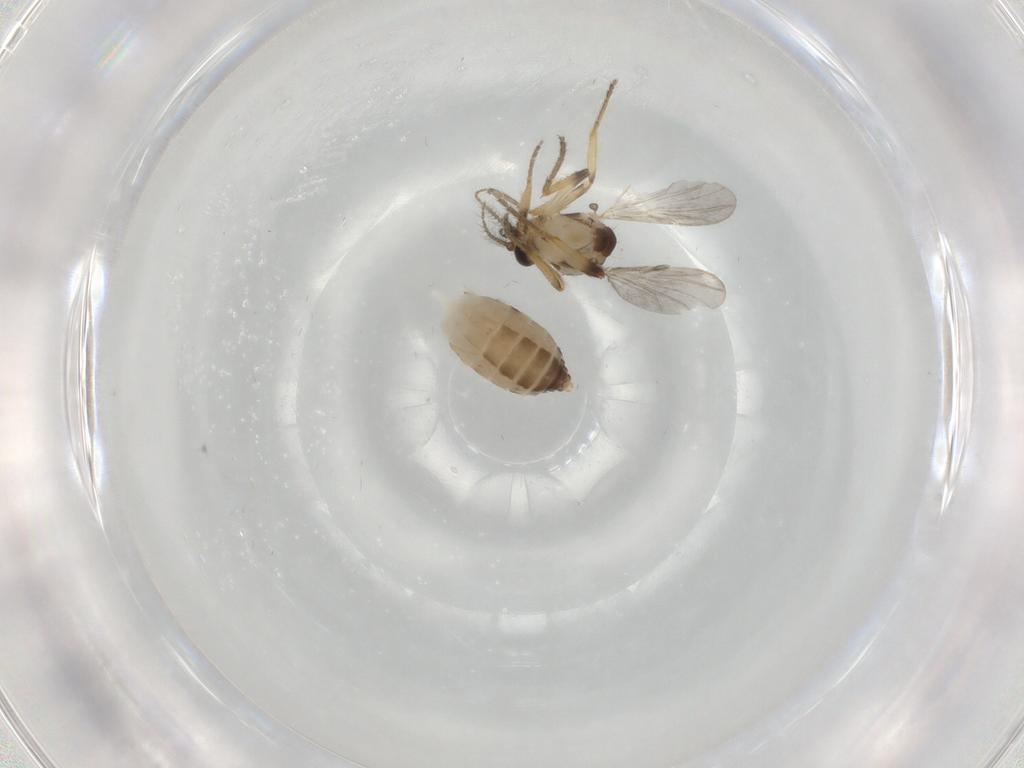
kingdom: Animalia
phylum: Arthropoda
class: Insecta
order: Diptera
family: Ceratopogonidae
